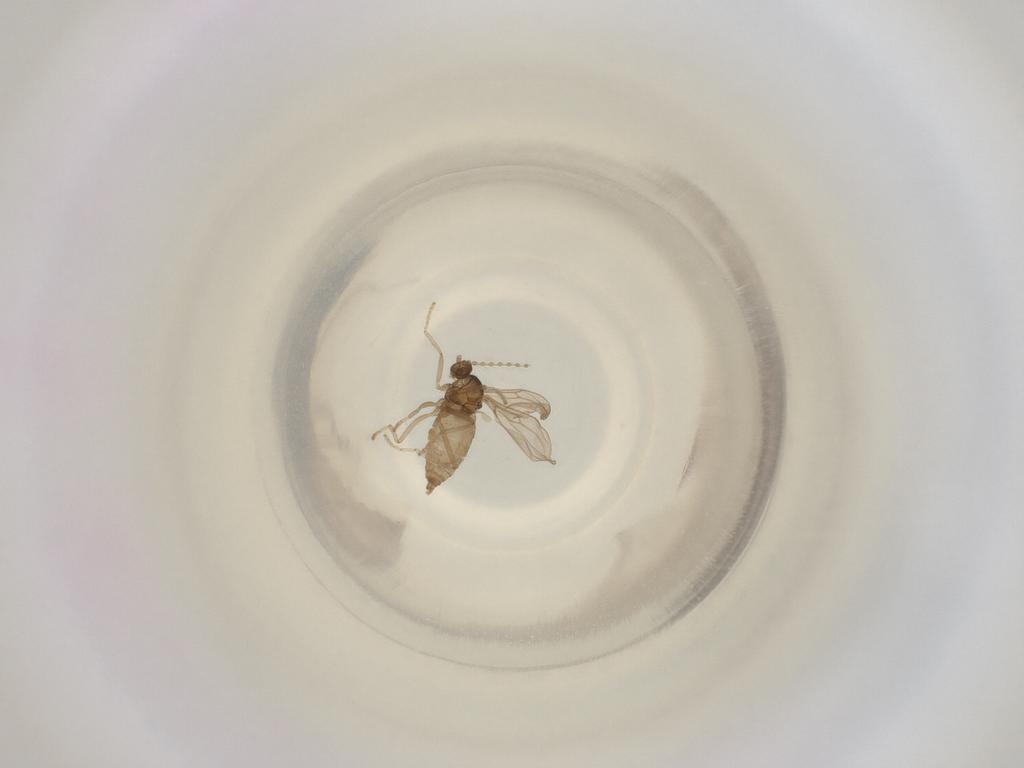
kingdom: Animalia
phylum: Arthropoda
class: Insecta
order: Diptera
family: Cecidomyiidae
